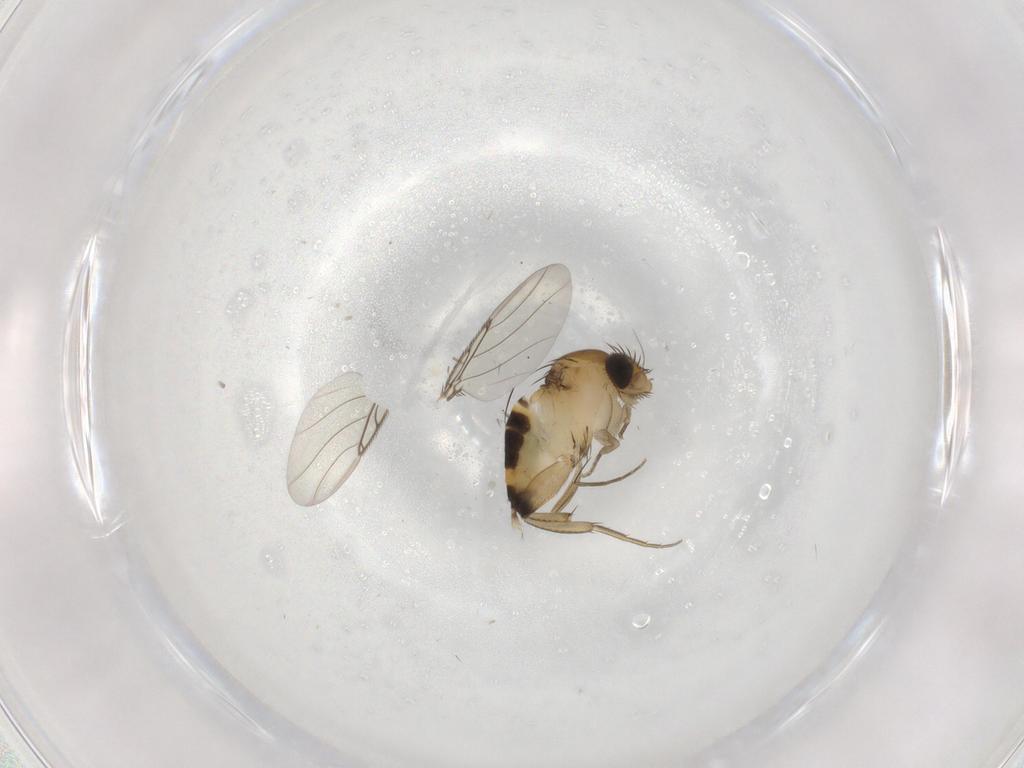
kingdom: Animalia
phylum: Arthropoda
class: Insecta
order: Diptera
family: Phoridae
